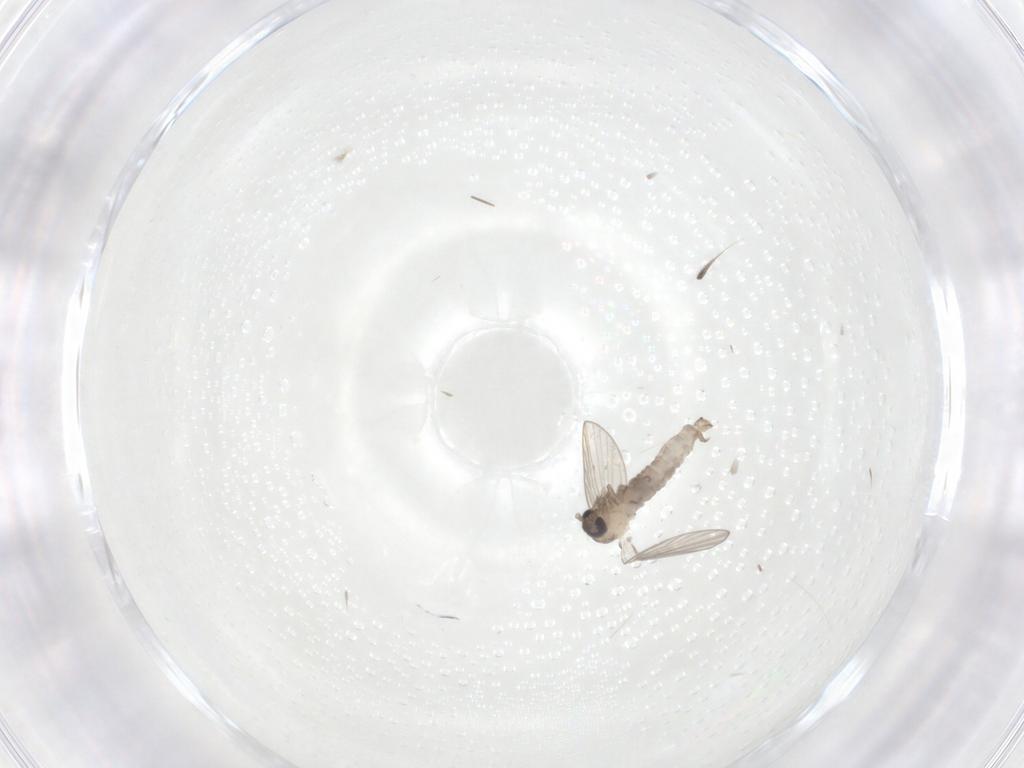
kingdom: Animalia
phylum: Arthropoda
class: Insecta
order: Diptera
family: Psychodidae
